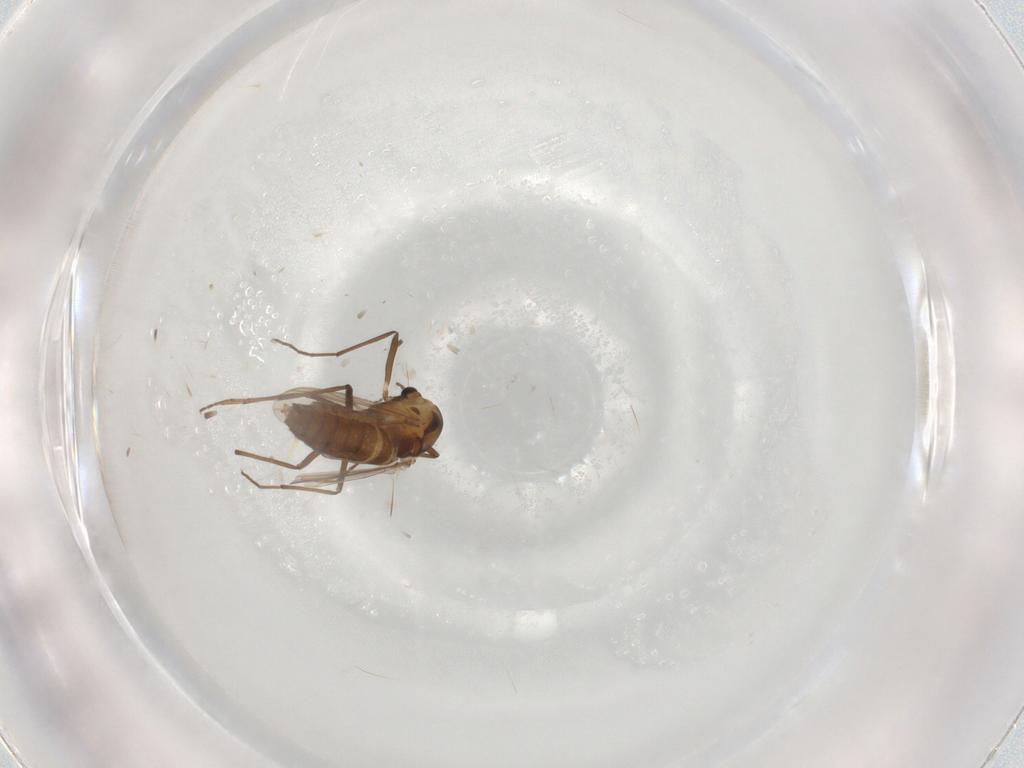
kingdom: Animalia
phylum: Arthropoda
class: Insecta
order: Diptera
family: Chironomidae
